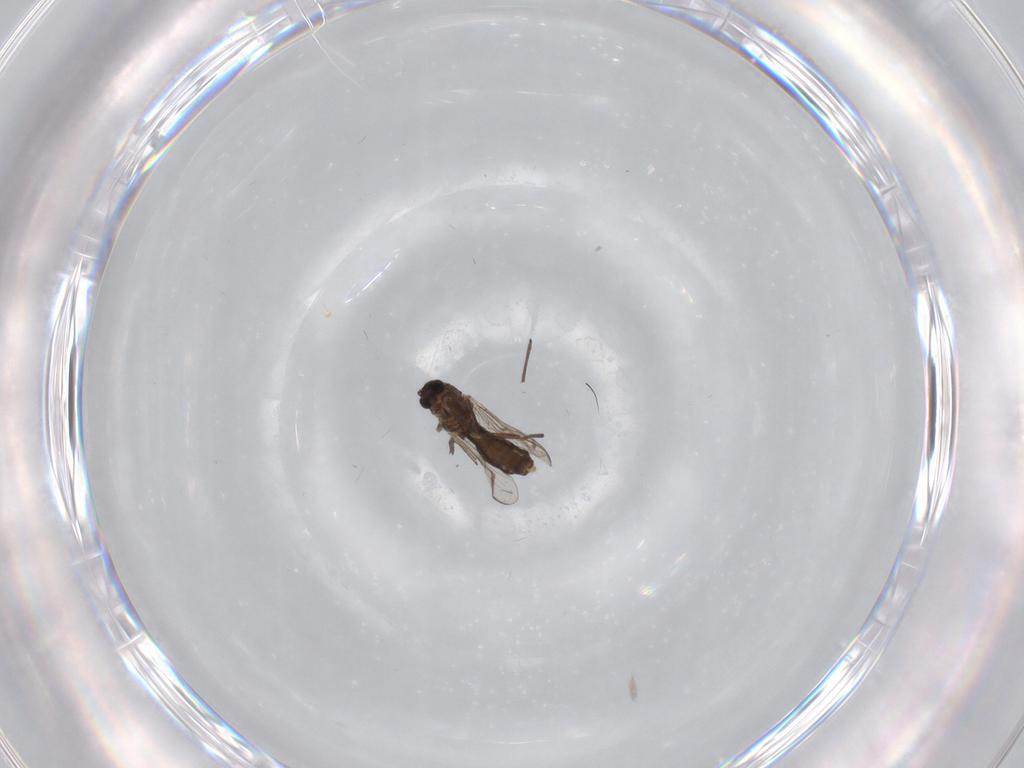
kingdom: Animalia
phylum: Arthropoda
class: Insecta
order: Diptera
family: Chironomidae
